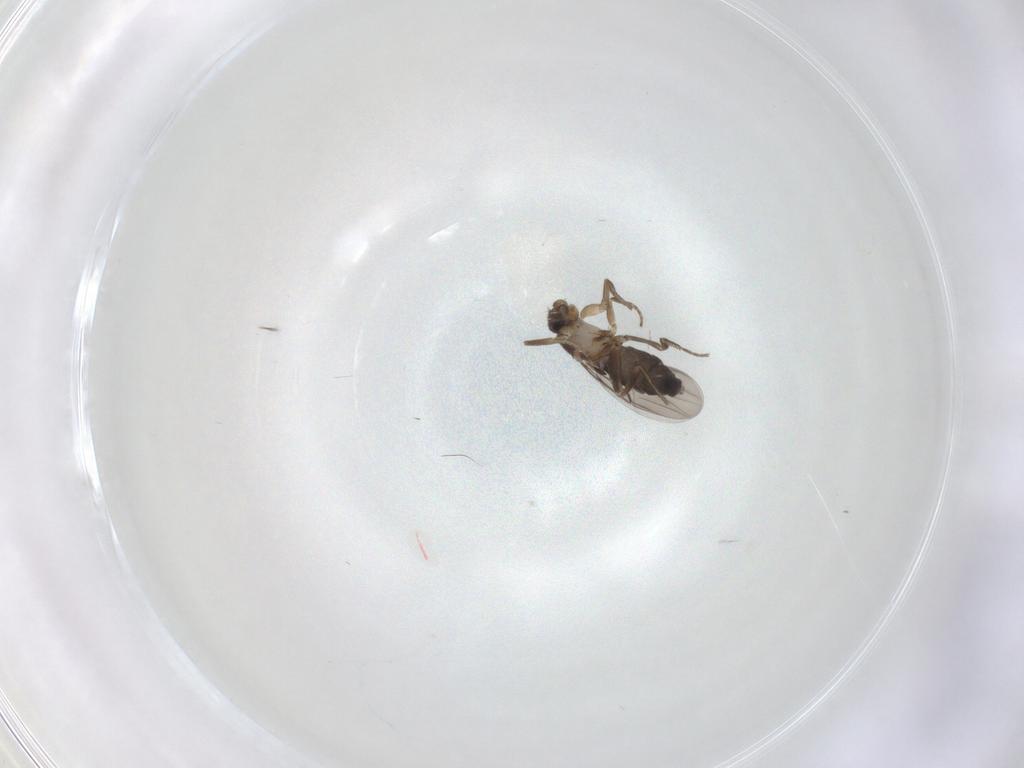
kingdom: Animalia
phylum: Arthropoda
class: Insecta
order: Diptera
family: Phoridae
